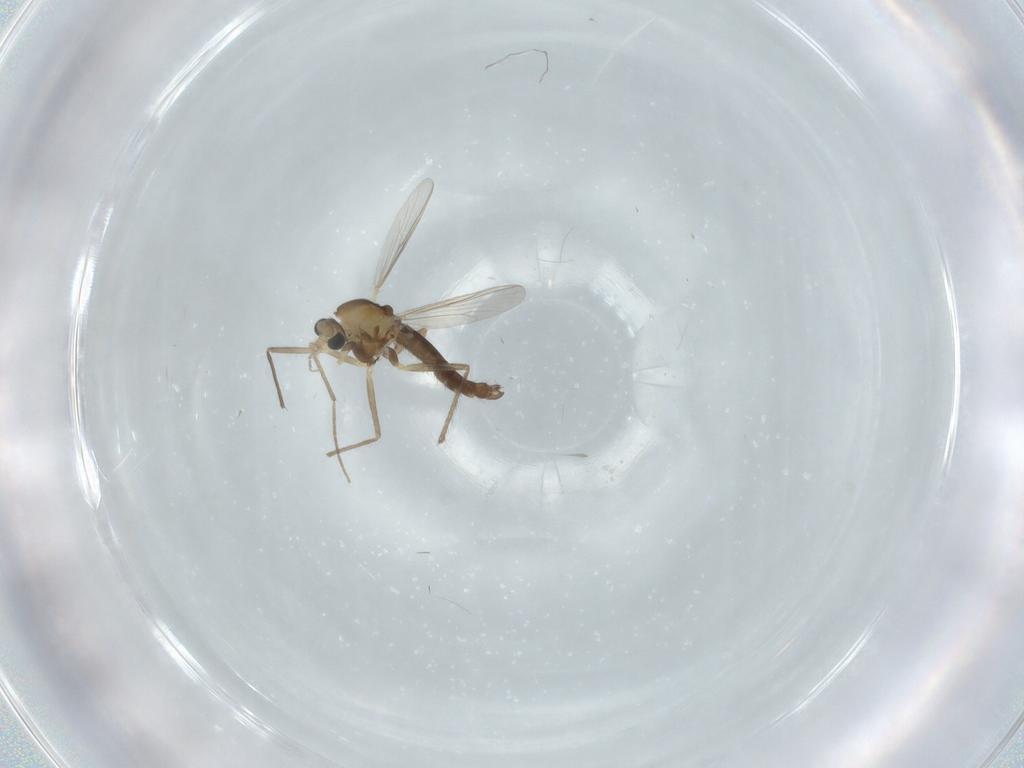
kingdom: Animalia
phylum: Arthropoda
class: Insecta
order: Diptera
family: Chironomidae
